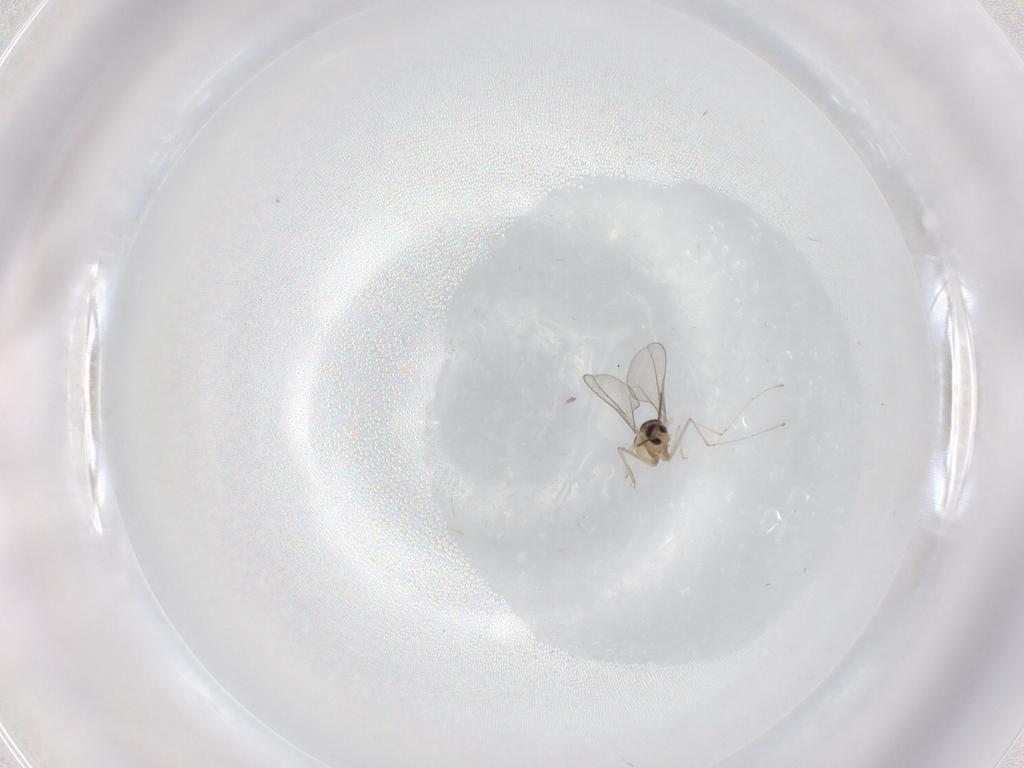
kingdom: Animalia
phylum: Arthropoda
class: Insecta
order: Diptera
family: Cecidomyiidae
